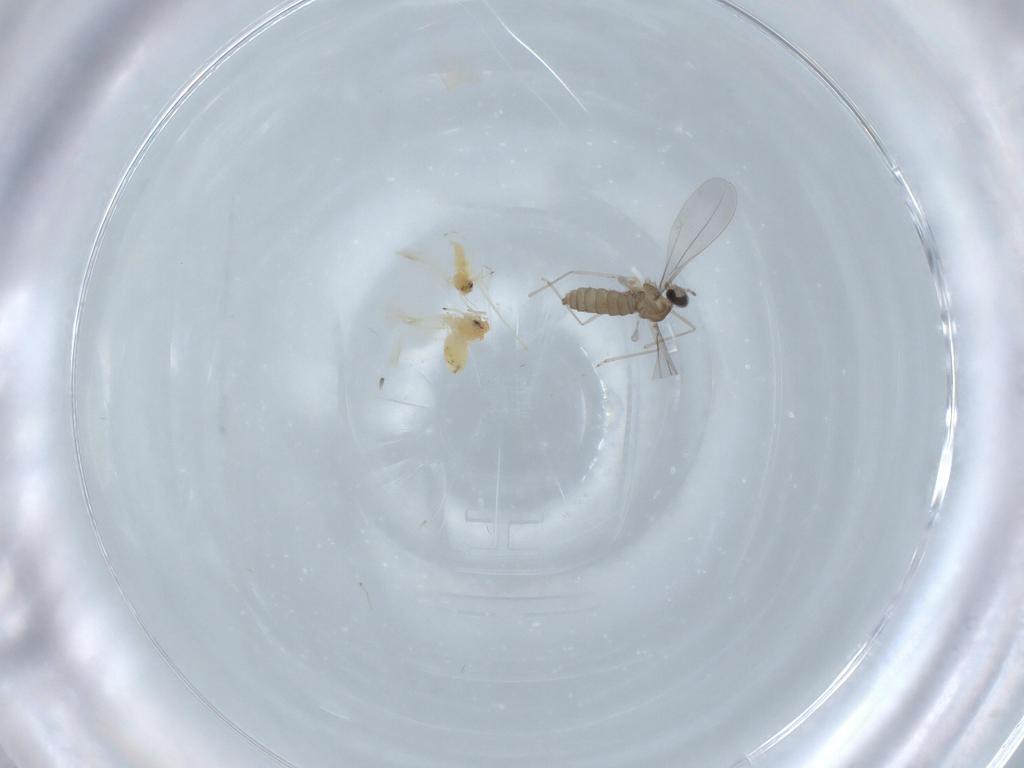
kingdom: Animalia
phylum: Arthropoda
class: Insecta
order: Diptera
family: Cecidomyiidae
